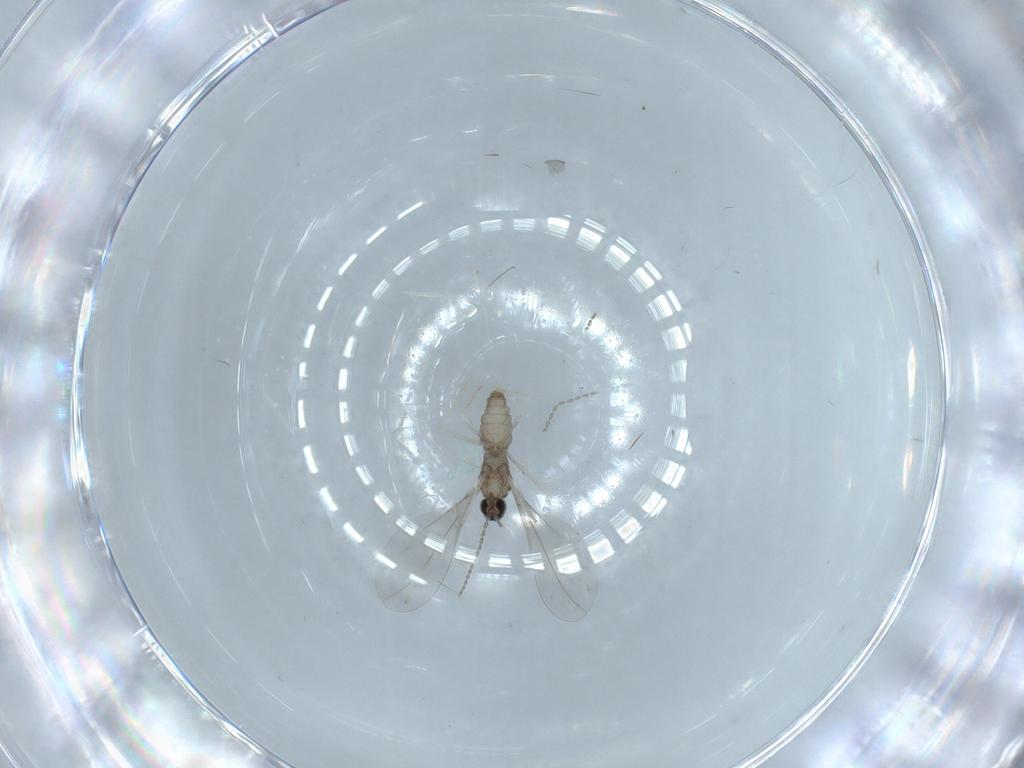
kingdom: Animalia
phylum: Arthropoda
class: Insecta
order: Diptera
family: Cecidomyiidae
